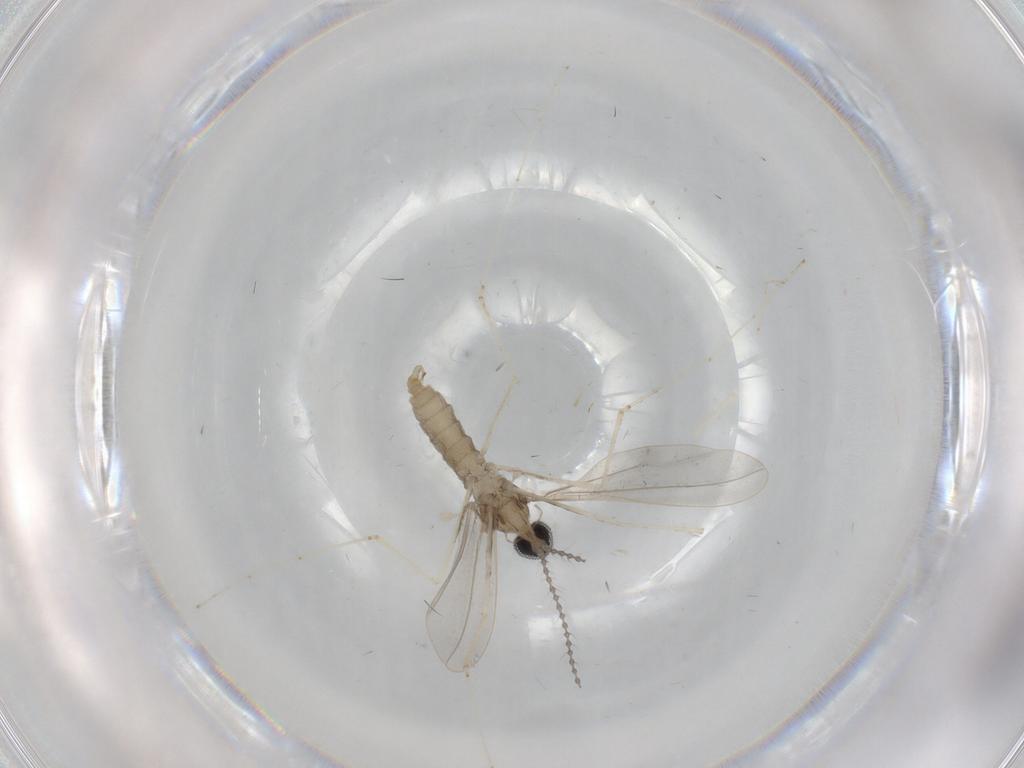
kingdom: Animalia
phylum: Arthropoda
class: Insecta
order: Diptera
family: Cecidomyiidae
